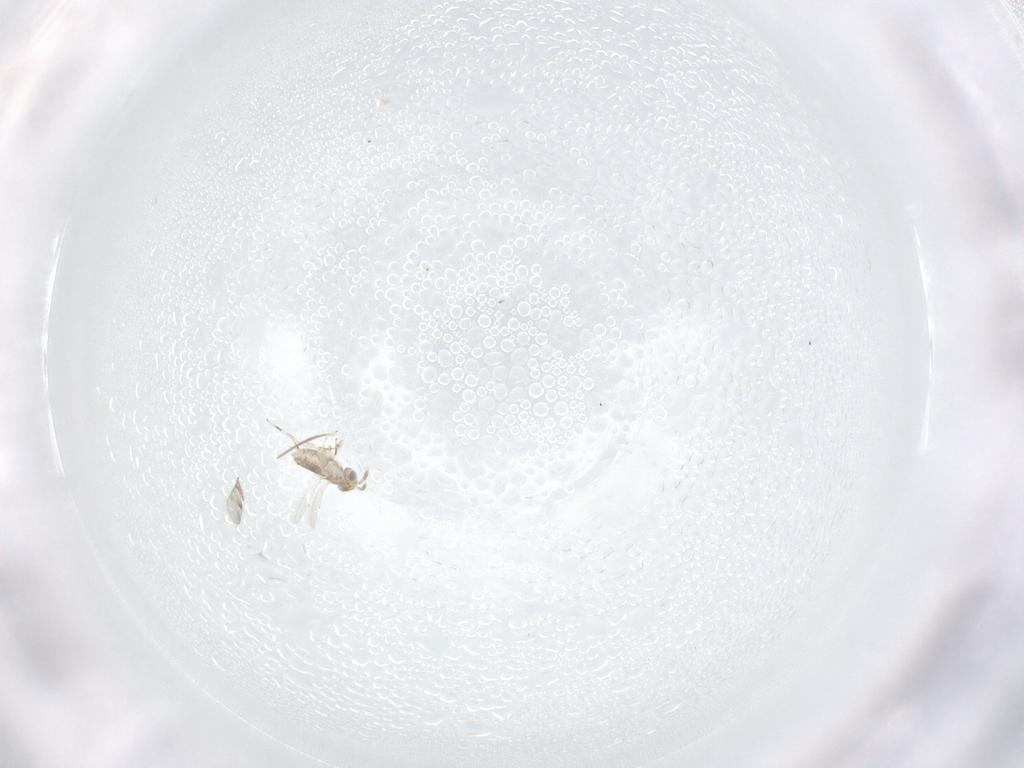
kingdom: Animalia
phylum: Arthropoda
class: Insecta
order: Hymenoptera
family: Aphelinidae
